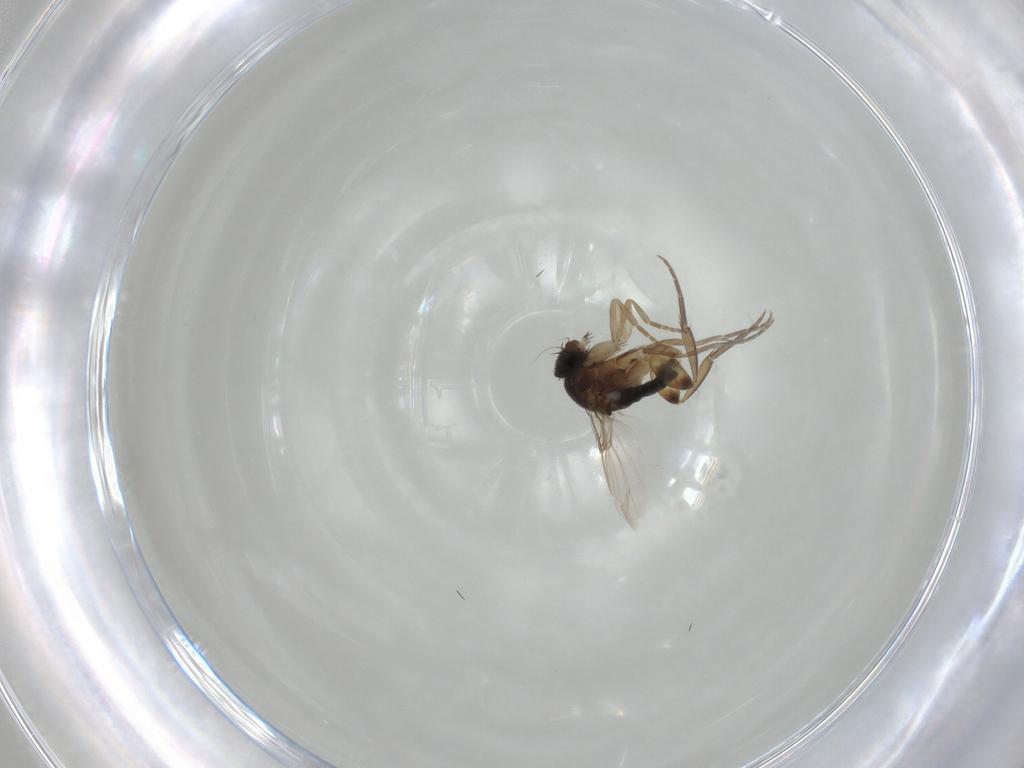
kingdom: Animalia
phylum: Arthropoda
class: Insecta
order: Diptera
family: Phoridae
